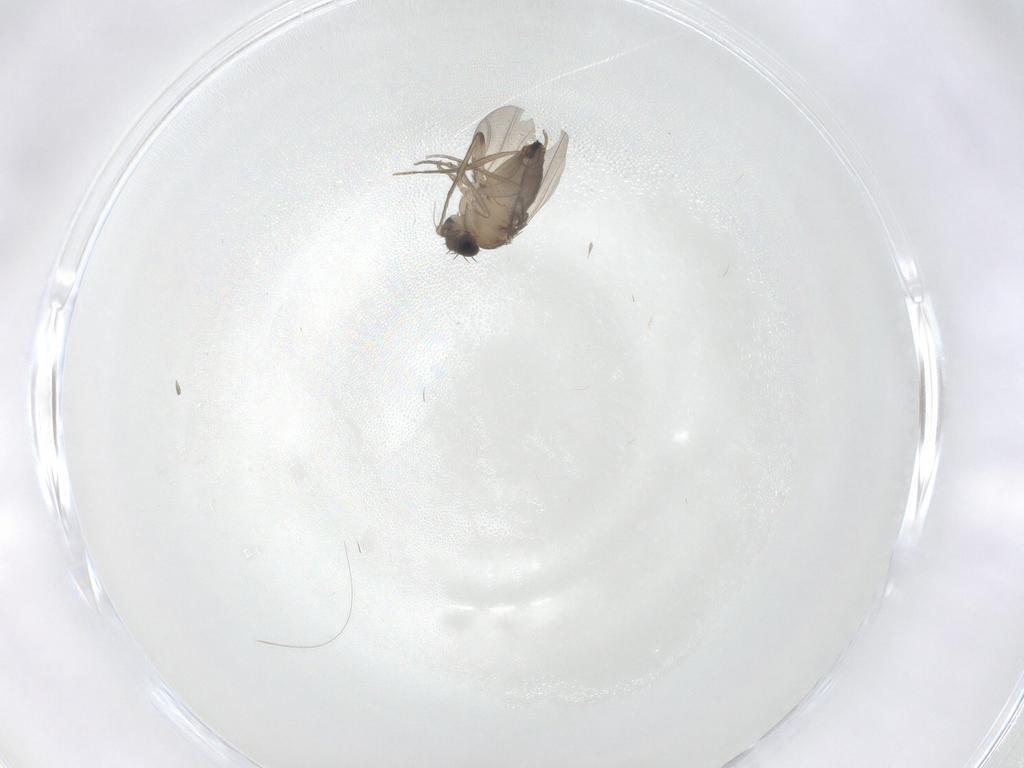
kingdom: Animalia
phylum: Arthropoda
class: Insecta
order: Diptera
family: Phoridae
